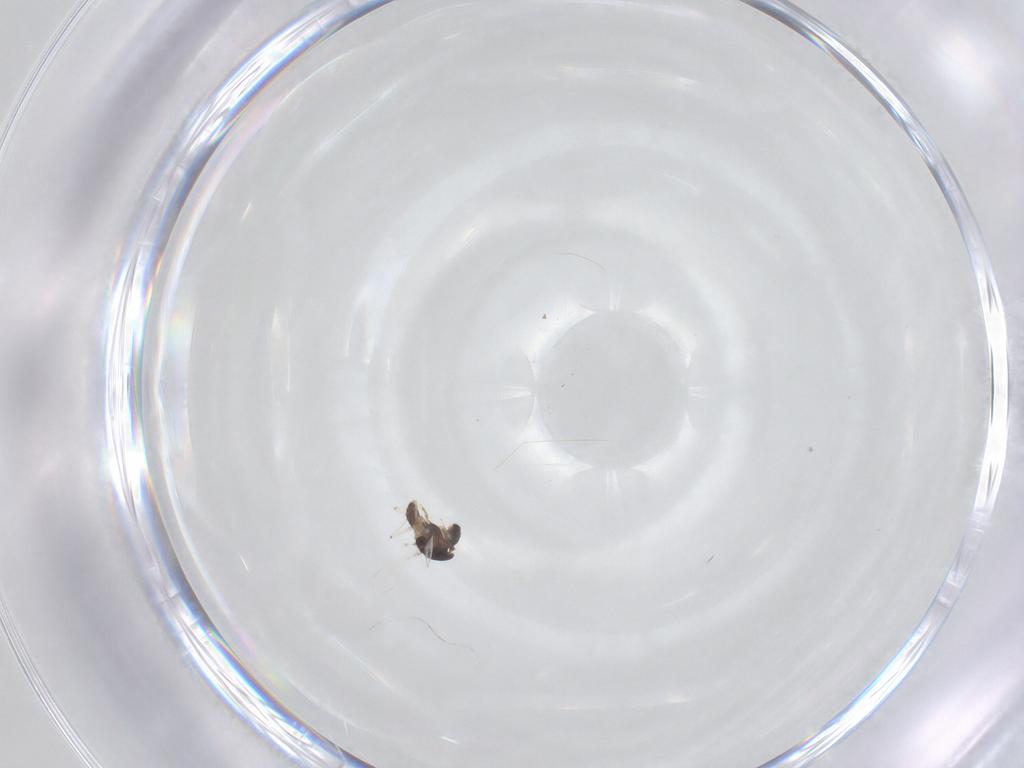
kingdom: Animalia
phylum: Arthropoda
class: Insecta
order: Diptera
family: Chironomidae
